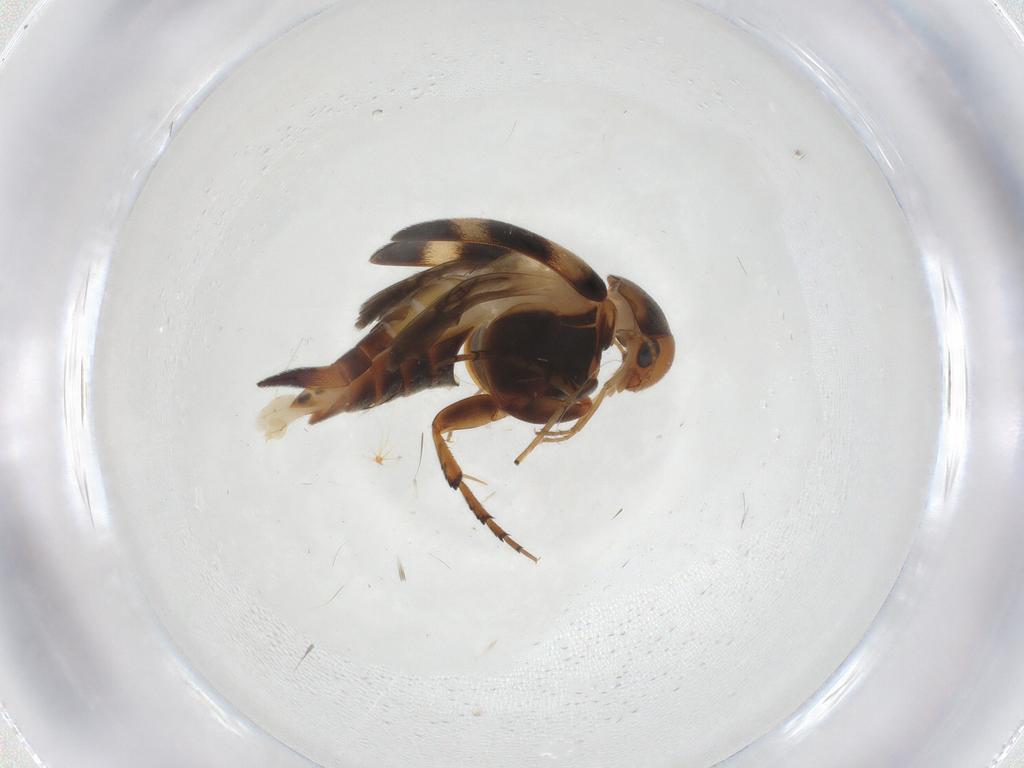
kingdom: Animalia
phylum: Arthropoda
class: Insecta
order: Coleoptera
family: Mordellidae
